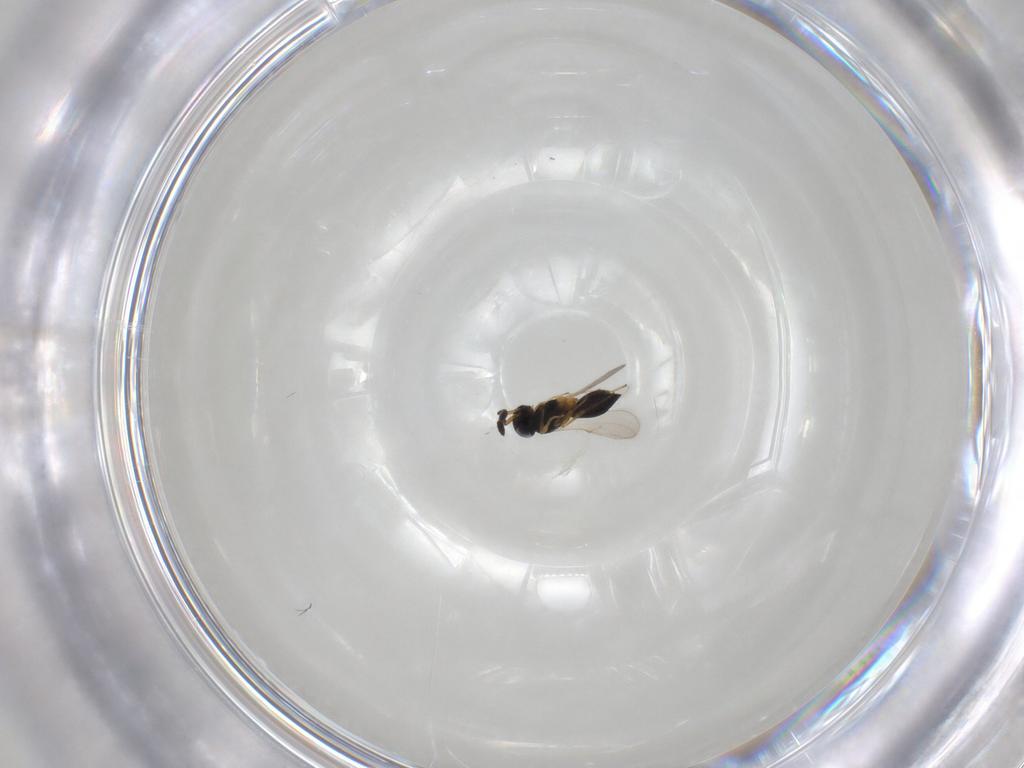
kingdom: Animalia
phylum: Arthropoda
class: Insecta
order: Hymenoptera
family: Scelionidae
